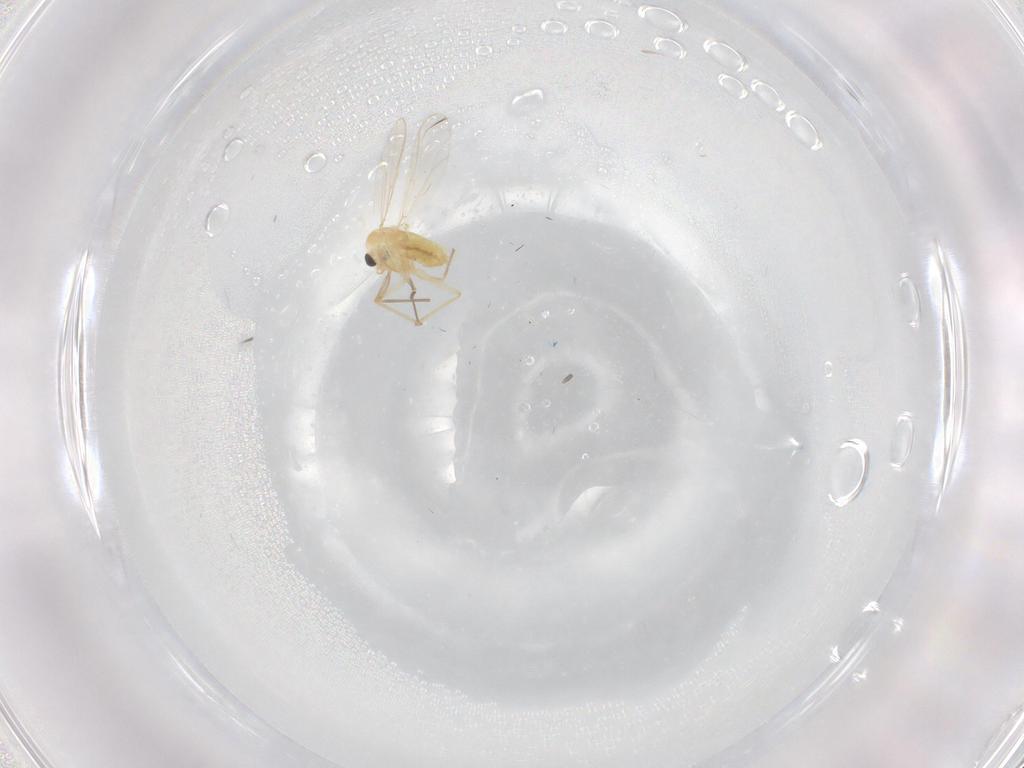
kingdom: Animalia
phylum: Arthropoda
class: Insecta
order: Diptera
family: Chironomidae
